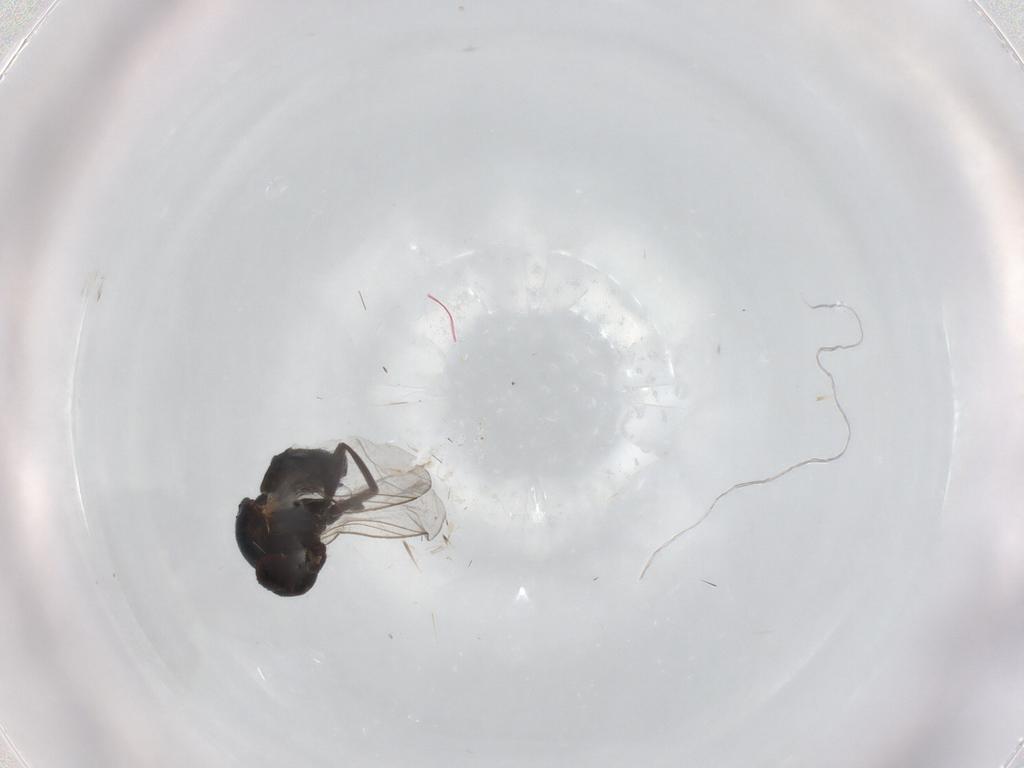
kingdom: Animalia
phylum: Arthropoda
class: Insecta
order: Diptera
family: Agromyzidae
